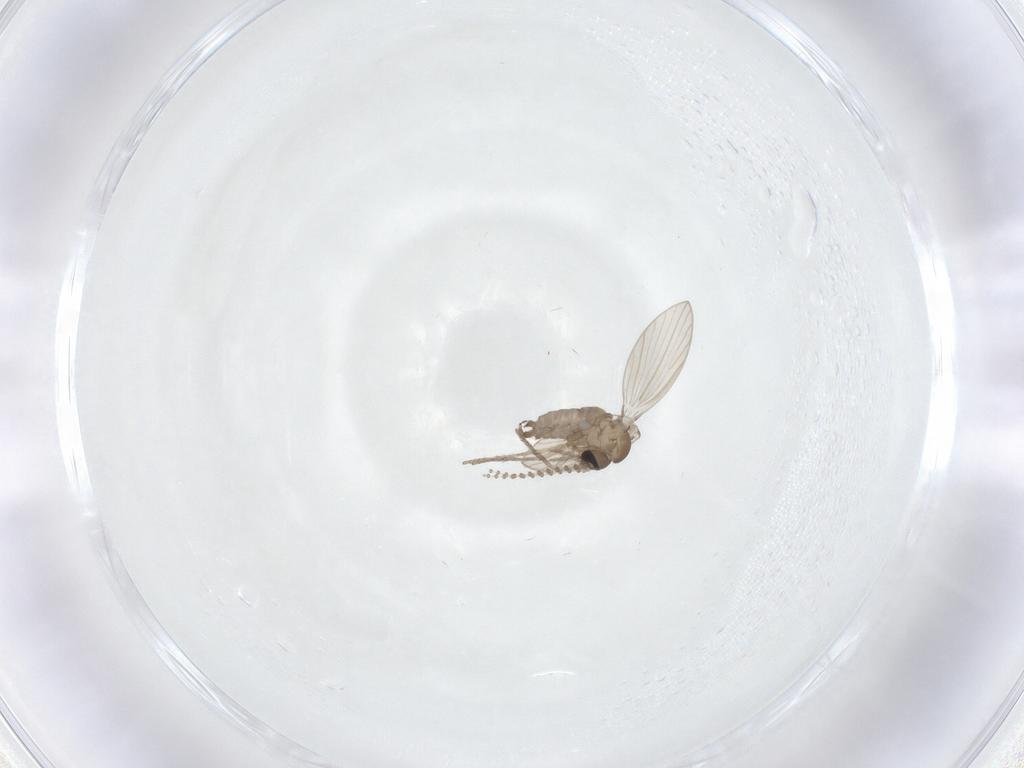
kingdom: Animalia
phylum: Arthropoda
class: Insecta
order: Diptera
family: Psychodidae
